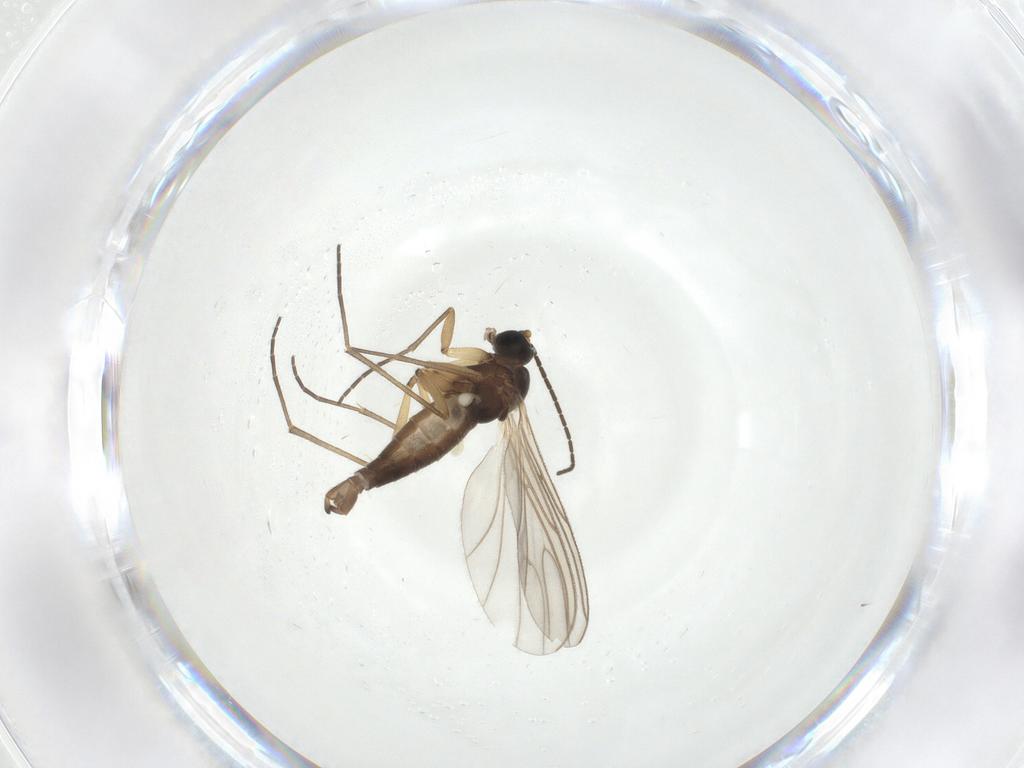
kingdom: Animalia
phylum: Arthropoda
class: Insecta
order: Diptera
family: Sciaridae
